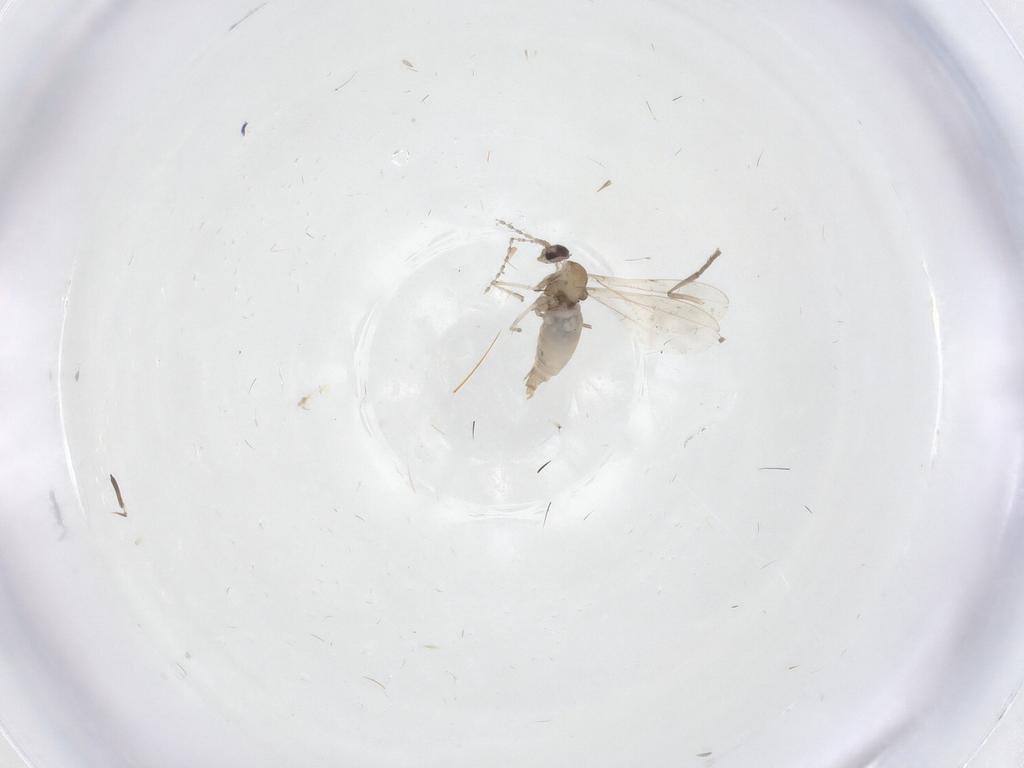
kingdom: Animalia
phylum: Arthropoda
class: Insecta
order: Diptera
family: Cecidomyiidae
